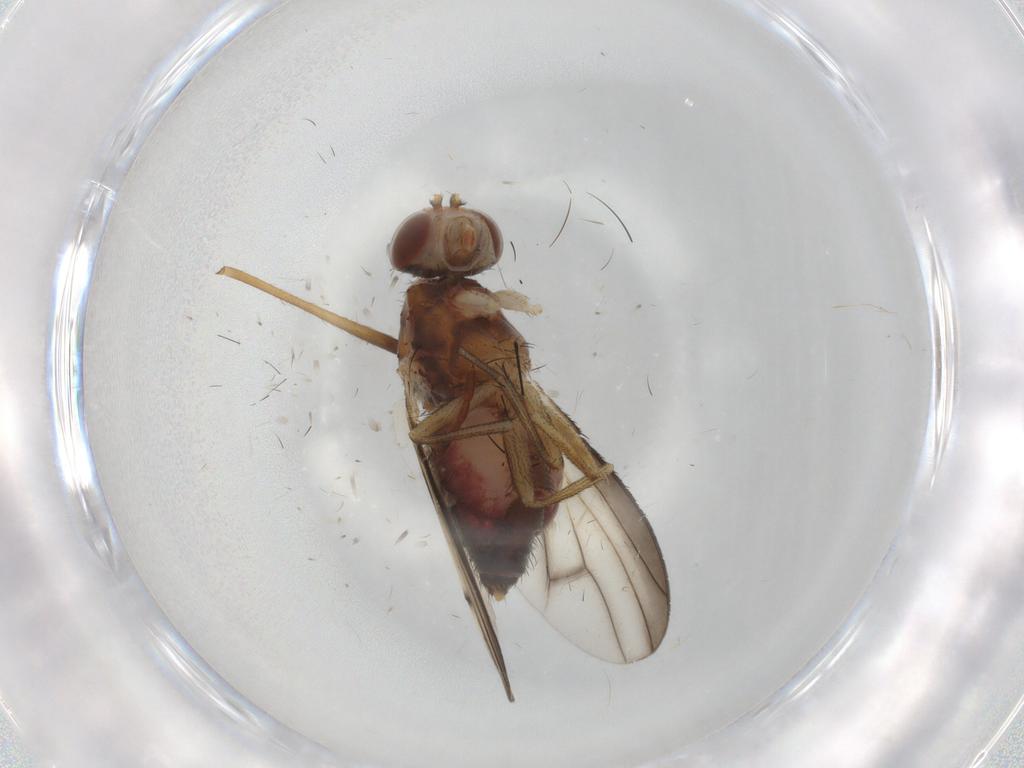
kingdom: Animalia
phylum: Arthropoda
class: Insecta
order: Diptera
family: Heleomyzidae
